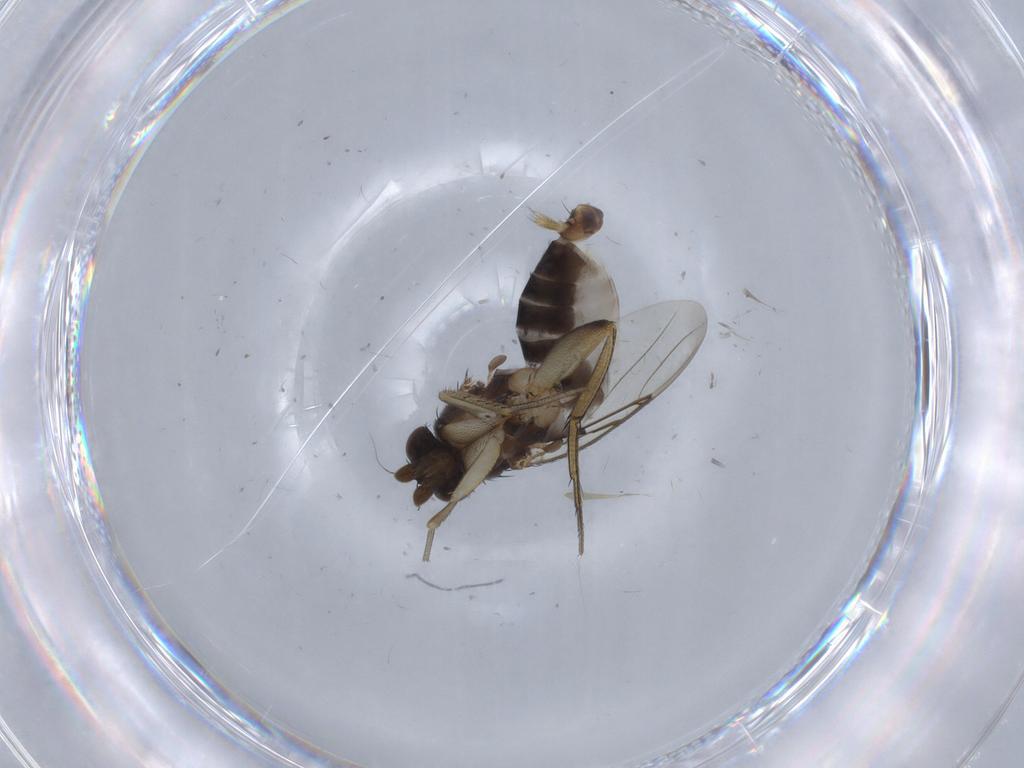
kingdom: Animalia
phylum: Arthropoda
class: Insecta
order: Diptera
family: Phoridae
